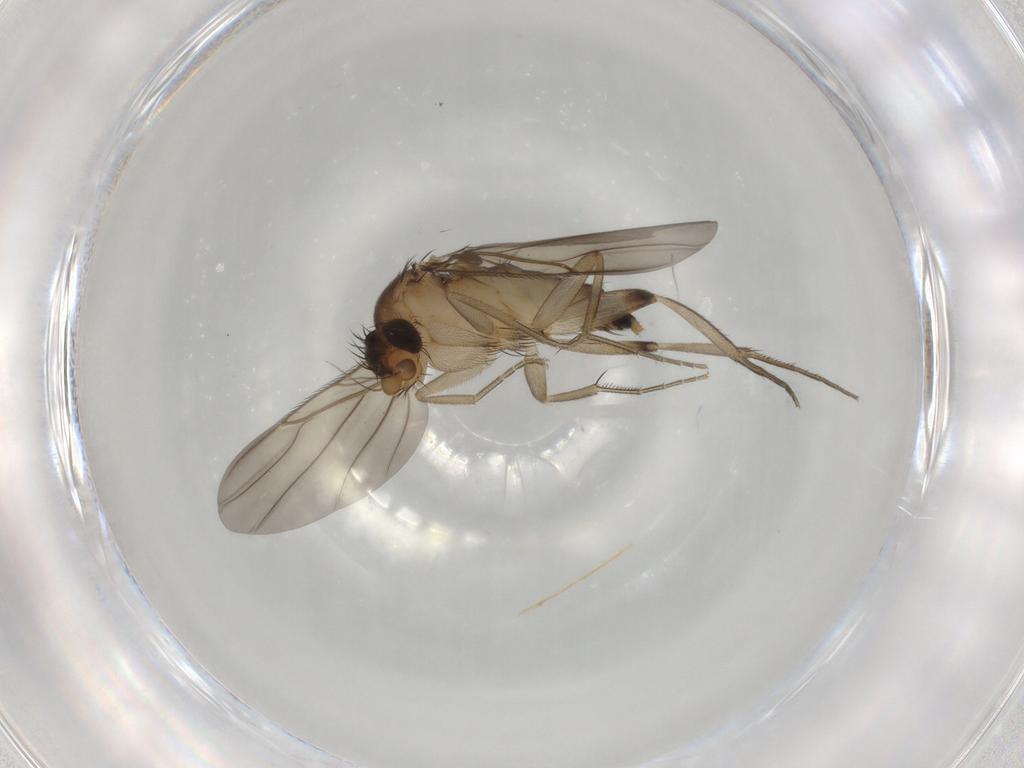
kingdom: Animalia
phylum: Arthropoda
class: Insecta
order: Diptera
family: Phoridae
